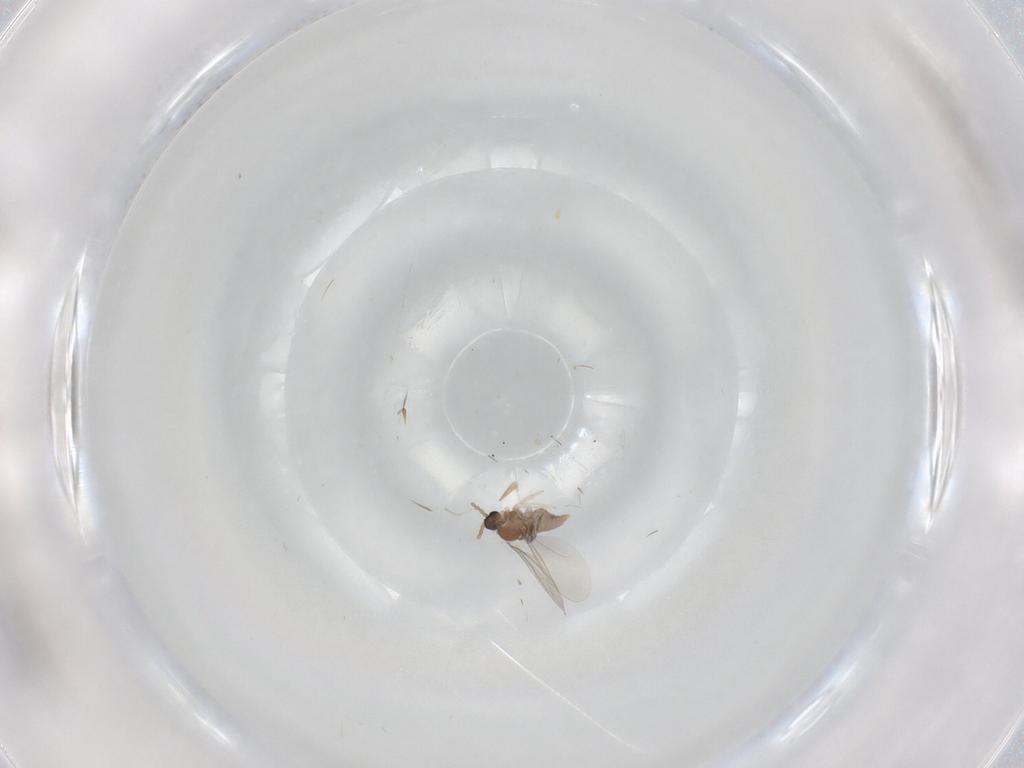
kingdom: Animalia
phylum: Arthropoda
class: Insecta
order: Diptera
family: Cecidomyiidae
